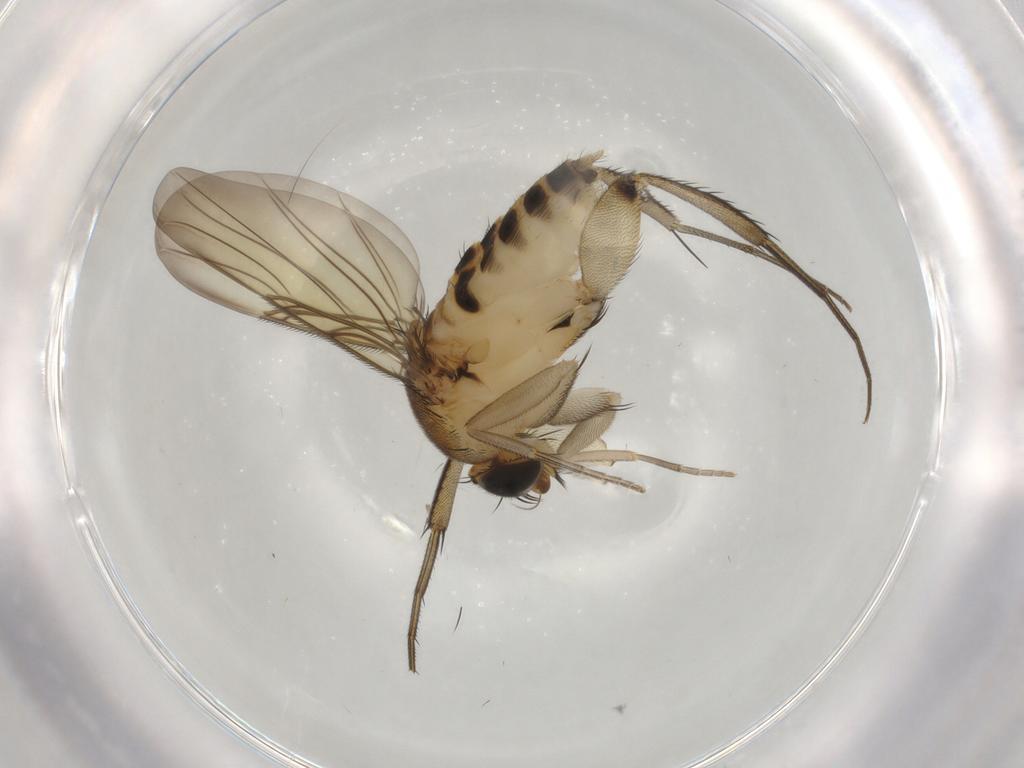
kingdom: Animalia
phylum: Arthropoda
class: Insecta
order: Diptera
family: Phoridae
